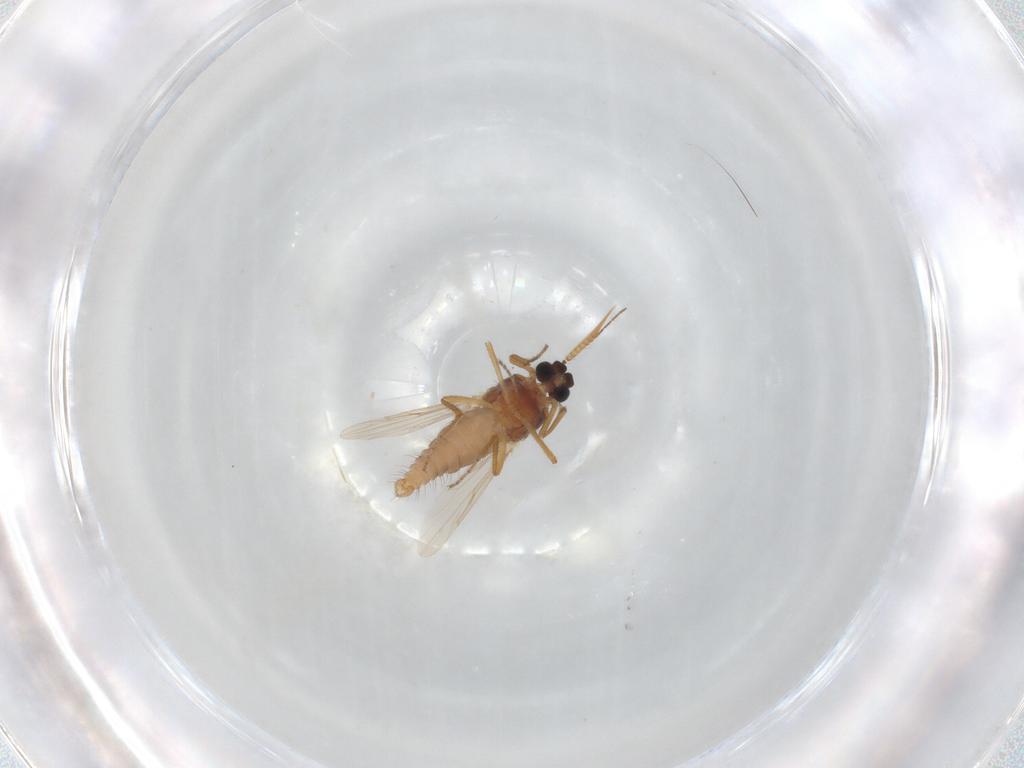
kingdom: Animalia
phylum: Arthropoda
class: Insecta
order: Diptera
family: Ceratopogonidae
